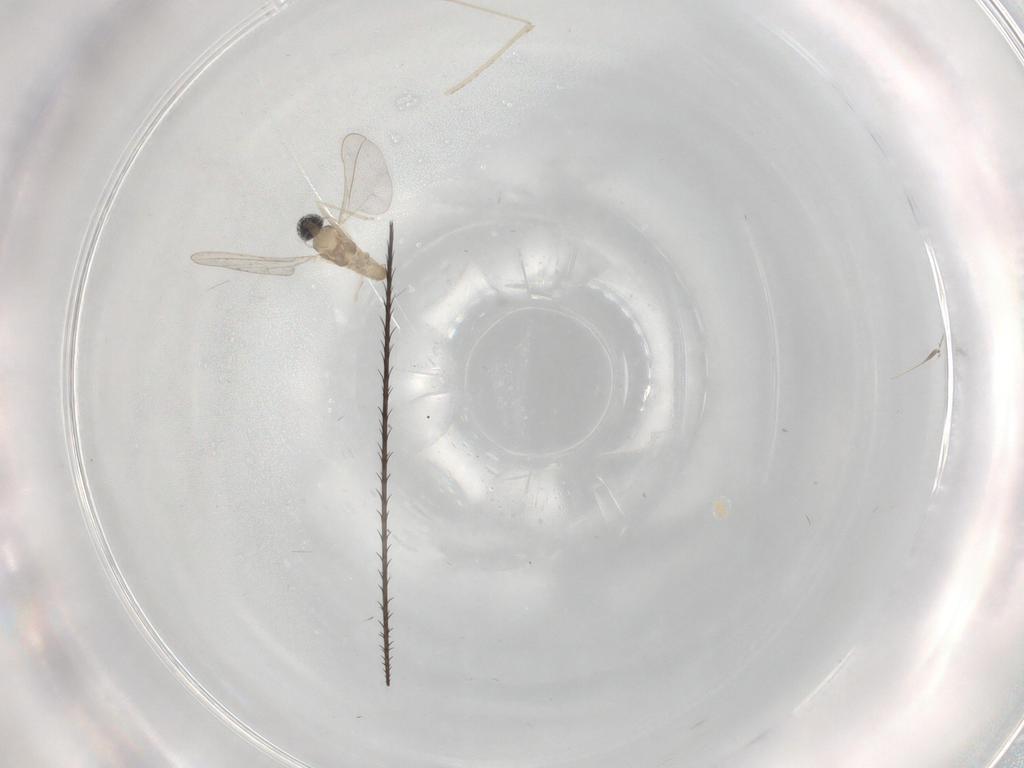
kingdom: Animalia
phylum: Arthropoda
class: Insecta
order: Diptera
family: Cecidomyiidae
